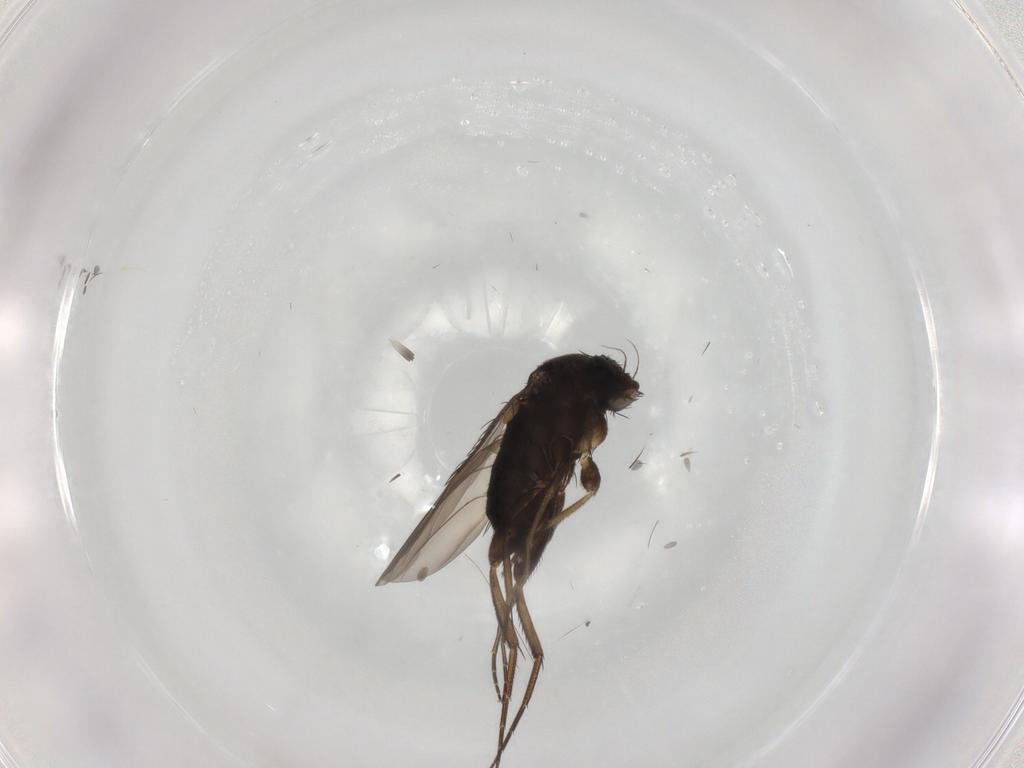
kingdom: Animalia
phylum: Arthropoda
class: Insecta
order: Diptera
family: Phoridae
